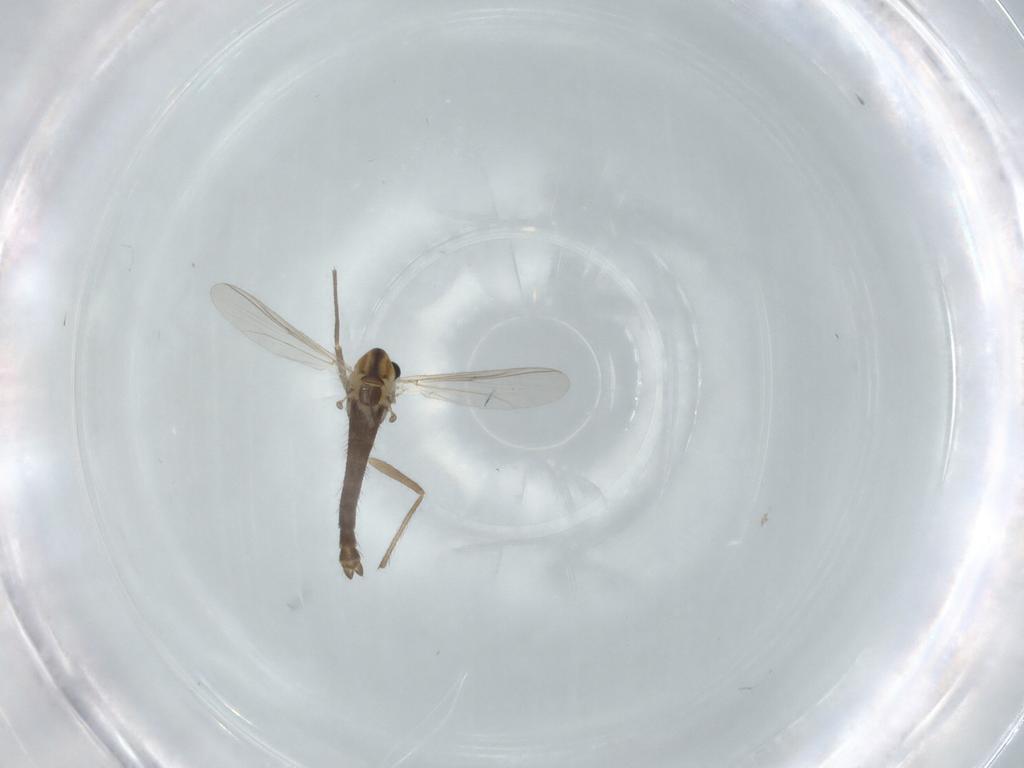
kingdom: Animalia
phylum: Arthropoda
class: Insecta
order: Diptera
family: Chironomidae
